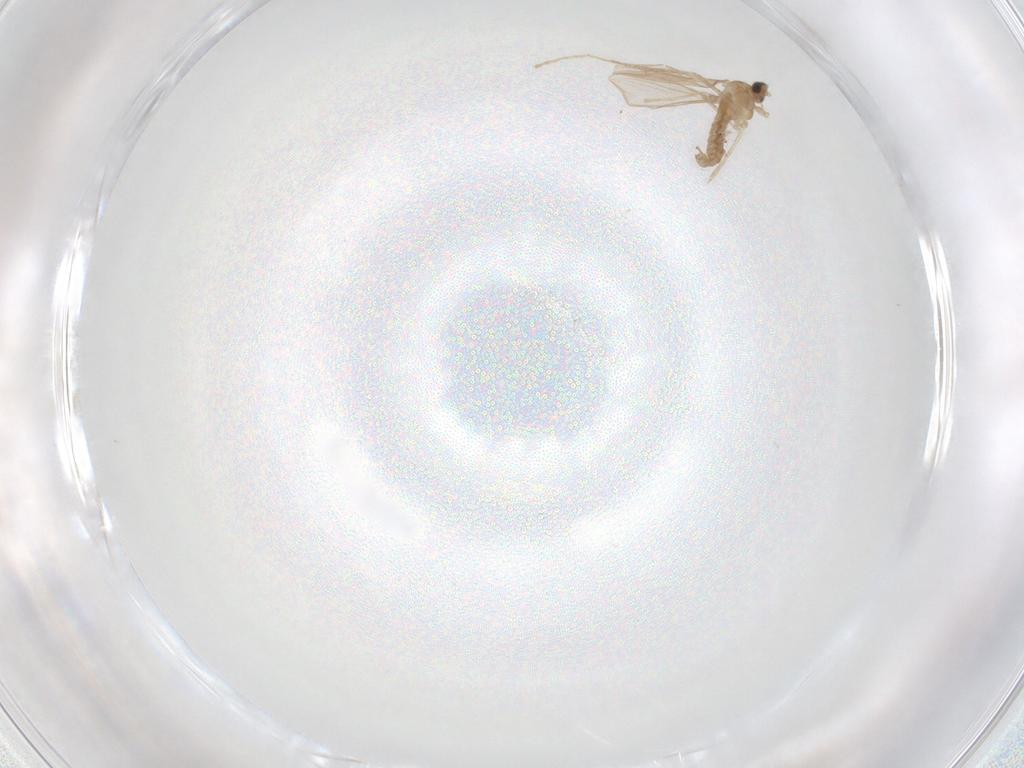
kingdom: Animalia
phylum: Arthropoda
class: Insecta
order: Diptera
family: Cecidomyiidae
